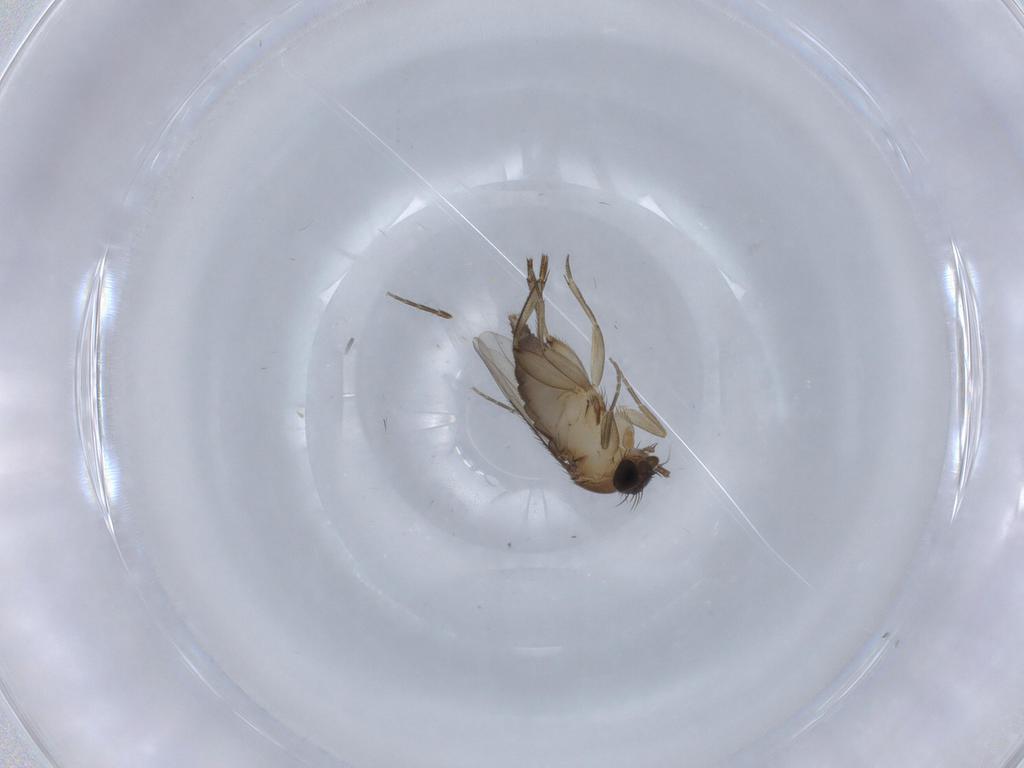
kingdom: Animalia
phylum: Arthropoda
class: Insecta
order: Diptera
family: Phoridae
